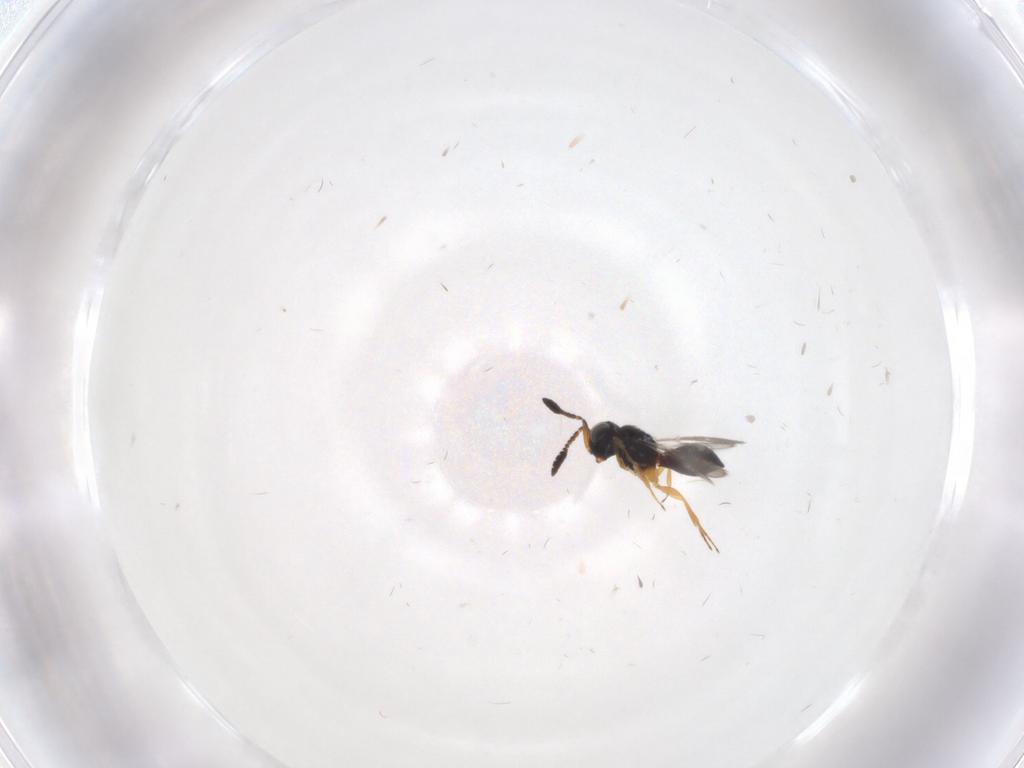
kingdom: Animalia
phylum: Arthropoda
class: Insecta
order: Hymenoptera
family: Scelionidae
